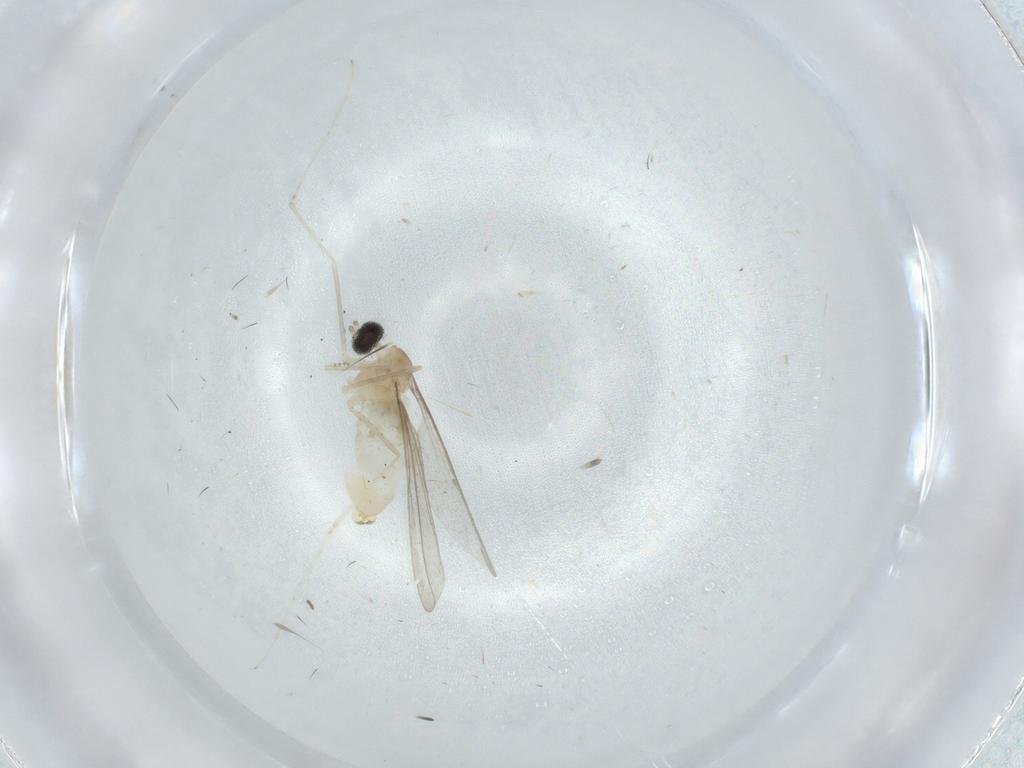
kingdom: Animalia
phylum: Arthropoda
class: Insecta
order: Diptera
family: Cecidomyiidae
